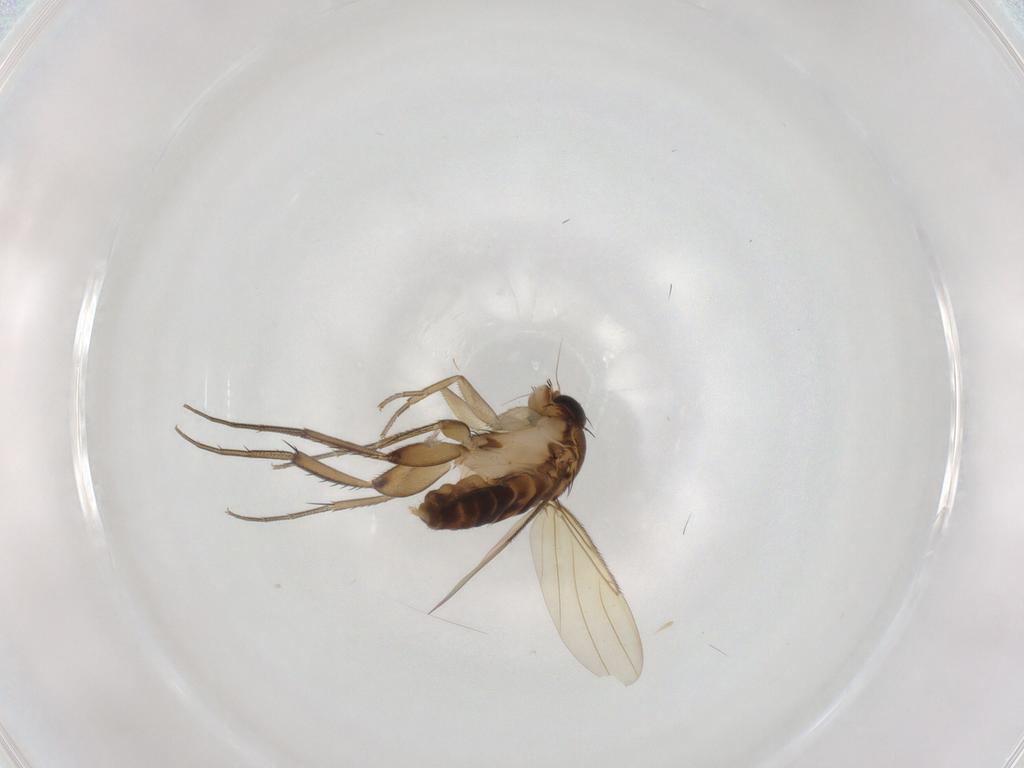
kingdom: Animalia
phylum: Arthropoda
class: Insecta
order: Diptera
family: Phoridae
